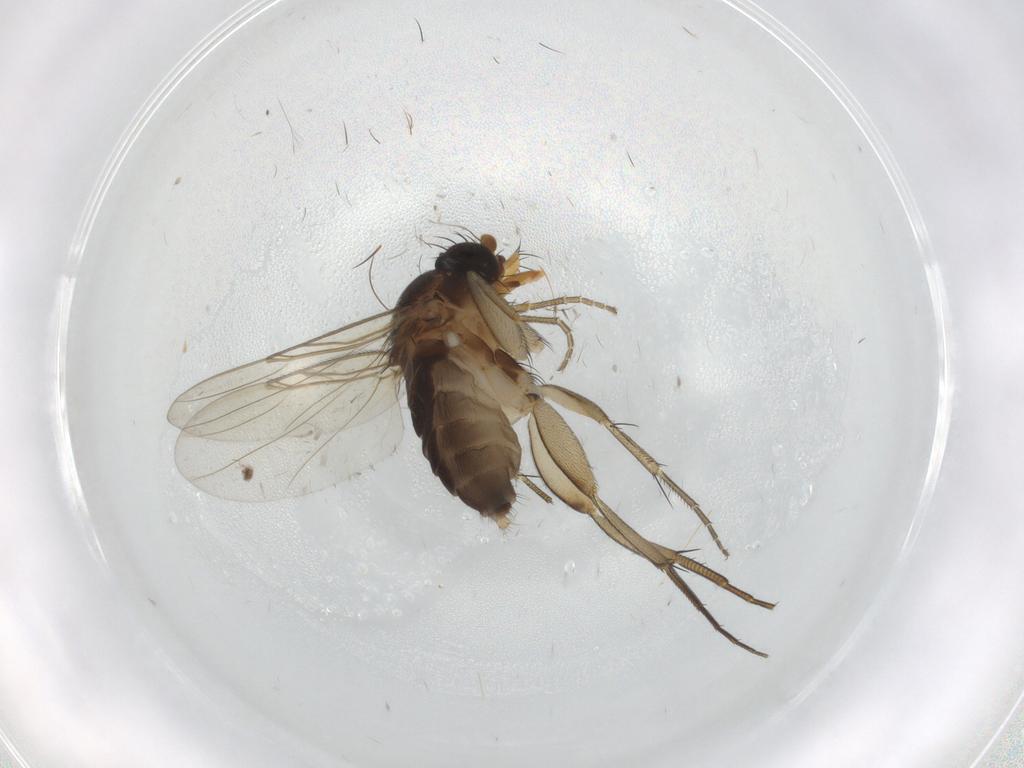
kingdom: Animalia
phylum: Arthropoda
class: Insecta
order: Diptera
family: Phoridae
